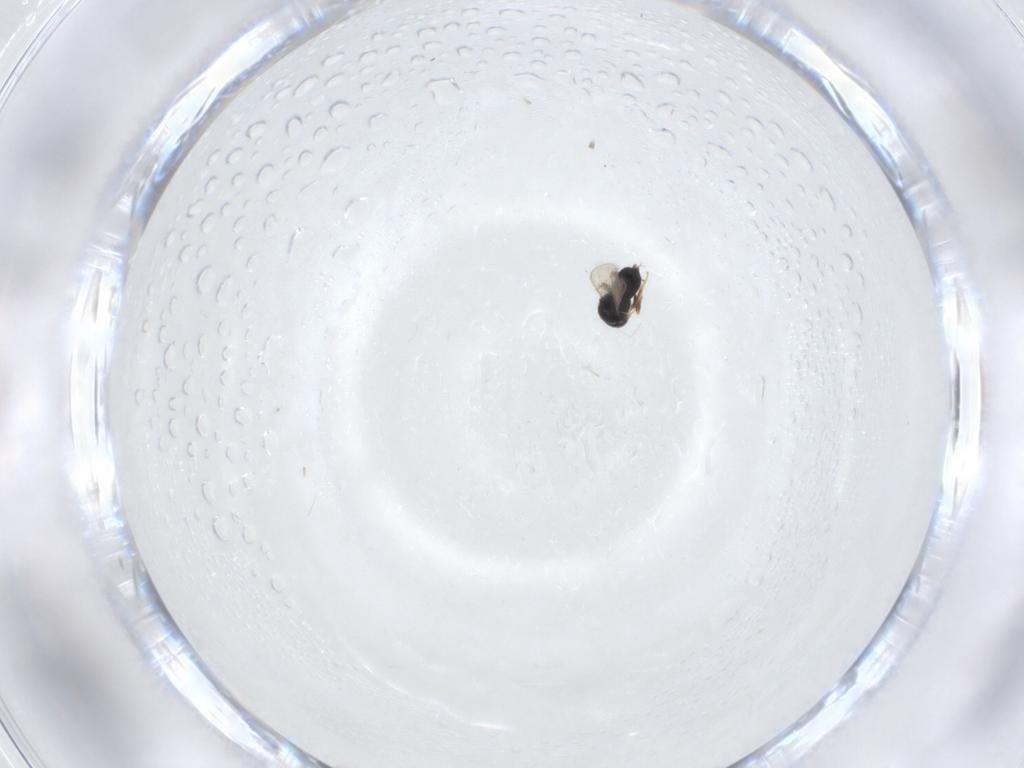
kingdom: Animalia
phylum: Arthropoda
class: Insecta
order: Hymenoptera
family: Scelionidae
